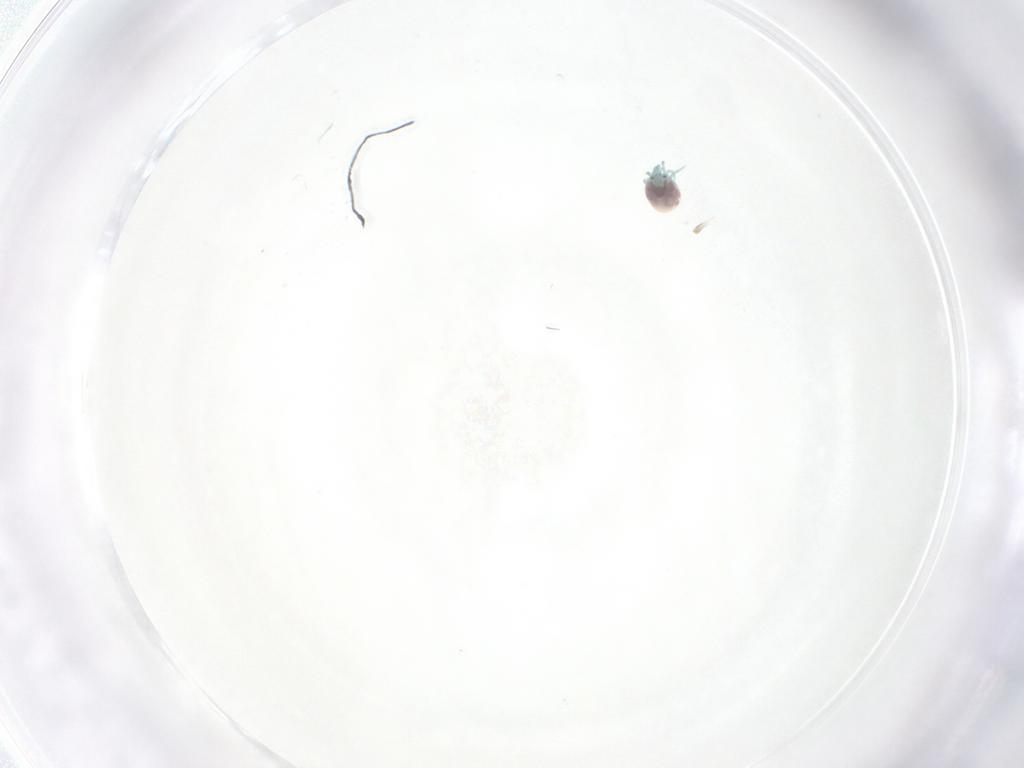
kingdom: Animalia
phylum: Arthropoda
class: Arachnida
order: Trombidiformes
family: Arrenuridae
